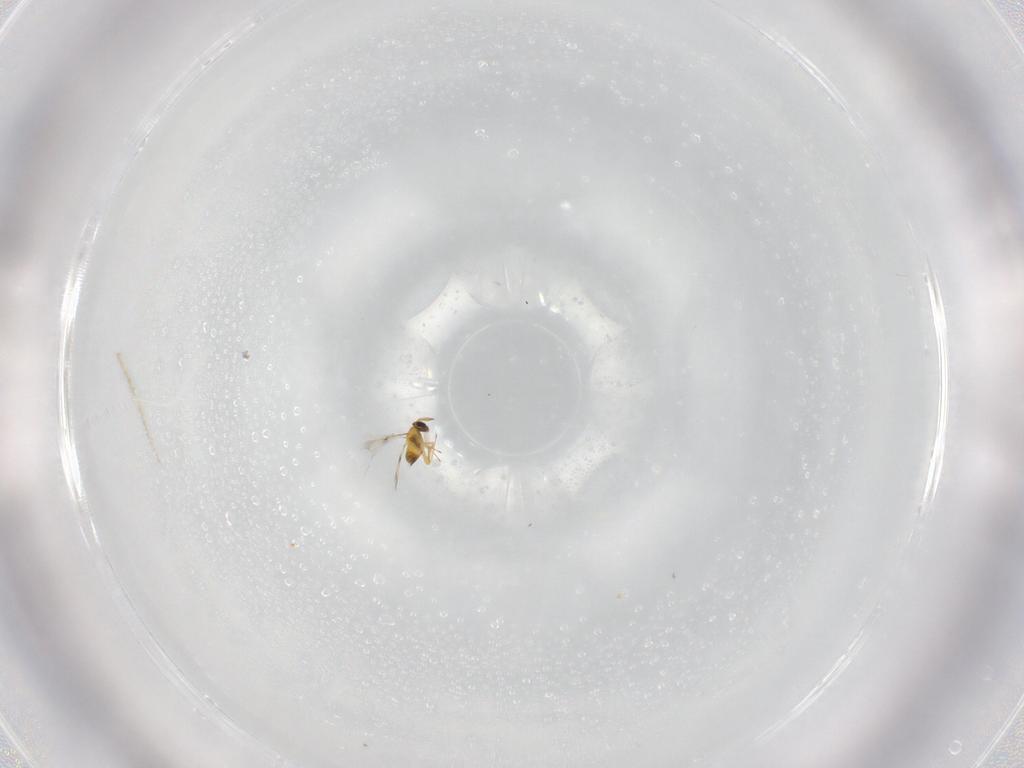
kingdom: Animalia
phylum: Arthropoda
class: Insecta
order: Hymenoptera
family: Trichogrammatidae
